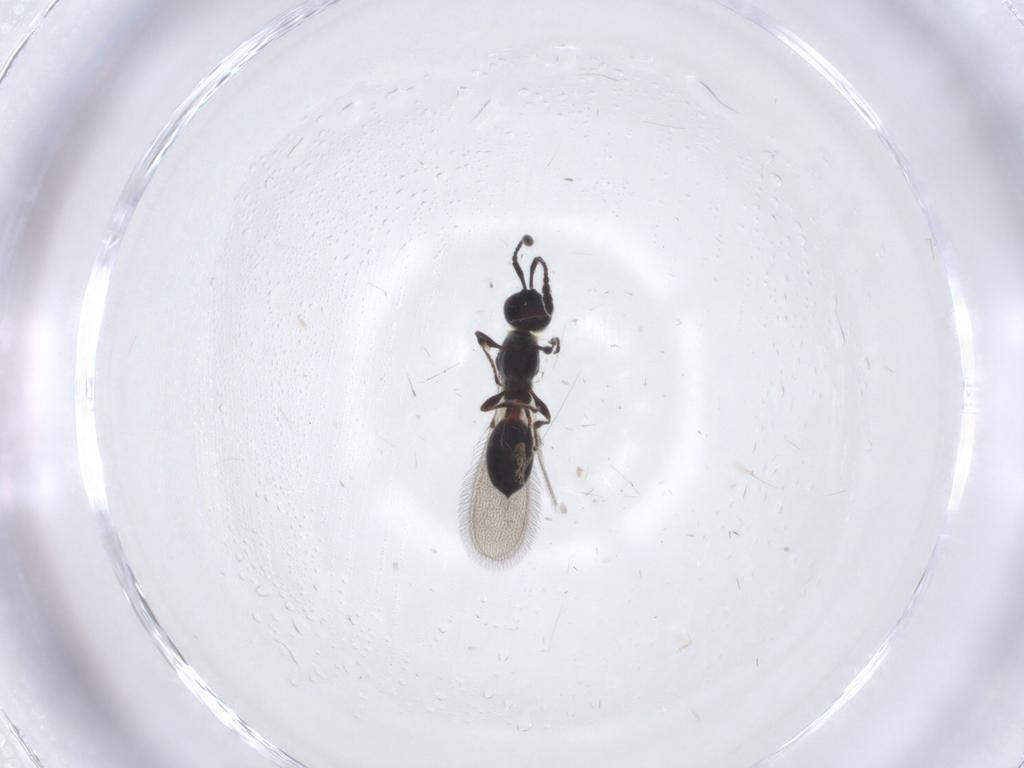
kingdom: Animalia
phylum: Arthropoda
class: Insecta
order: Hymenoptera
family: Diapriidae
